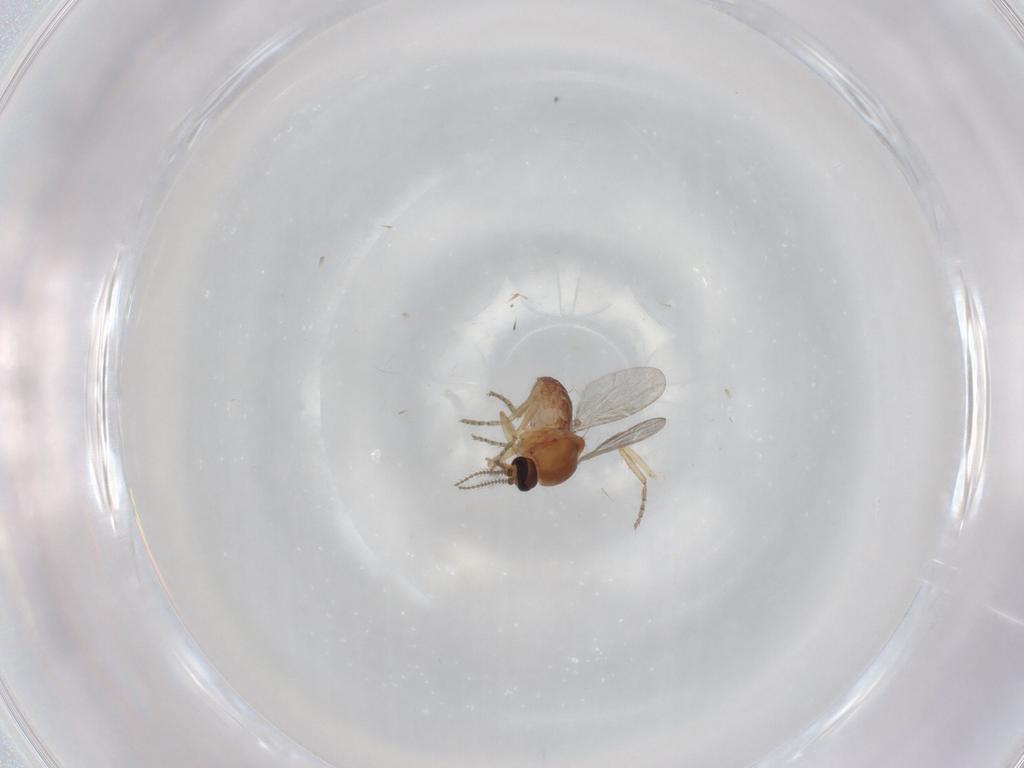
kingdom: Animalia
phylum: Arthropoda
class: Insecta
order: Diptera
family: Ceratopogonidae
